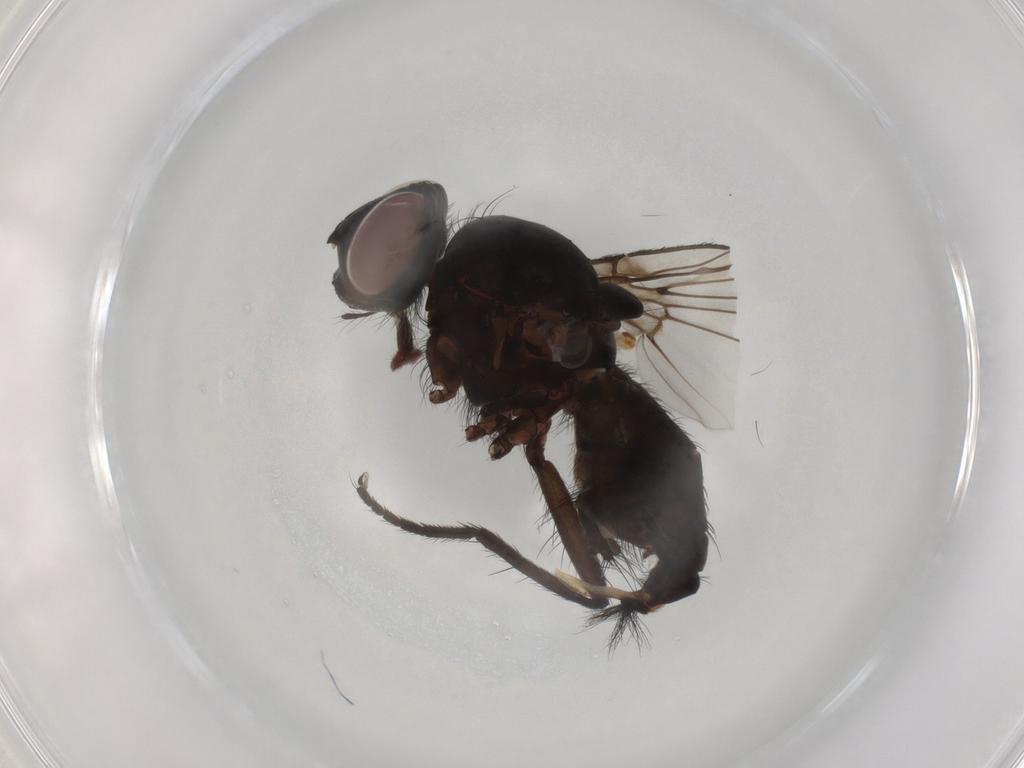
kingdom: Animalia
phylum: Arthropoda
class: Insecta
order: Diptera
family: Anthomyiidae
